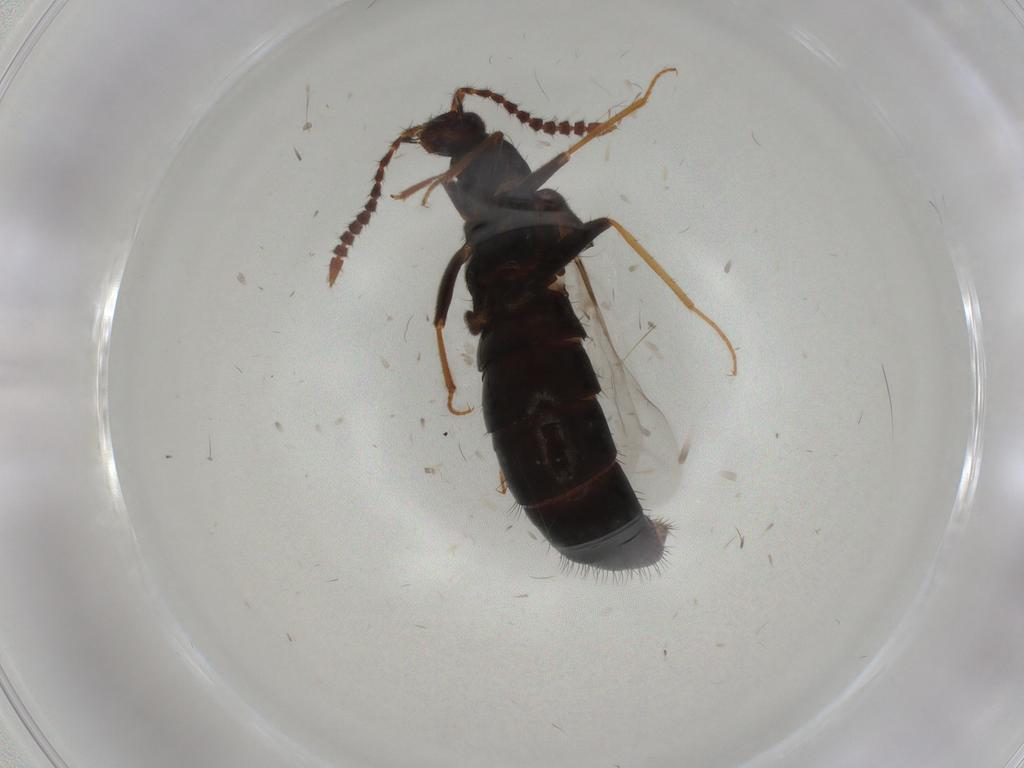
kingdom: Animalia
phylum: Arthropoda
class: Insecta
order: Coleoptera
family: Staphylinidae
